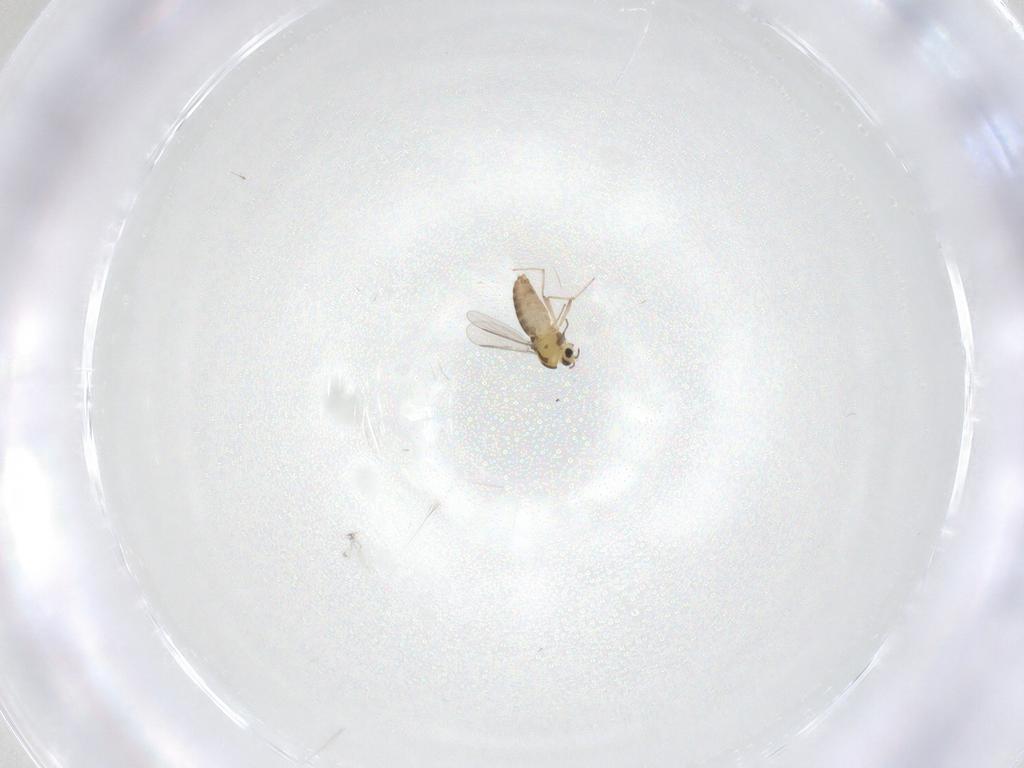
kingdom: Animalia
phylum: Arthropoda
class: Insecta
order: Diptera
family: Chironomidae
